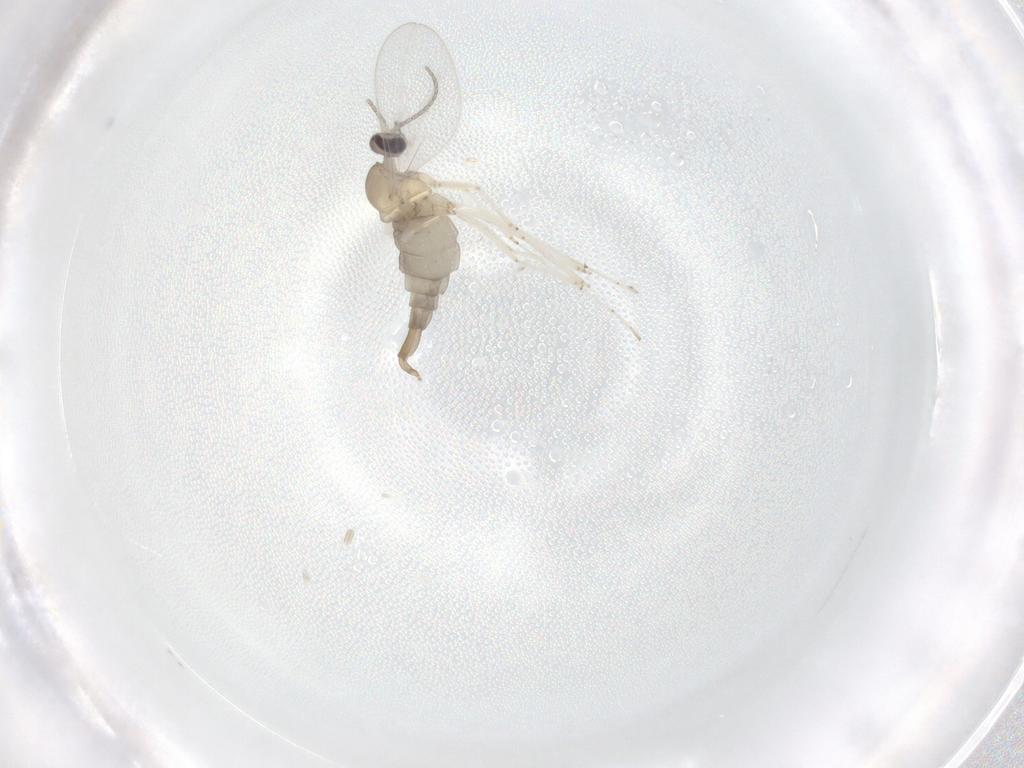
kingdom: Animalia
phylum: Arthropoda
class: Insecta
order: Diptera
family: Cecidomyiidae
